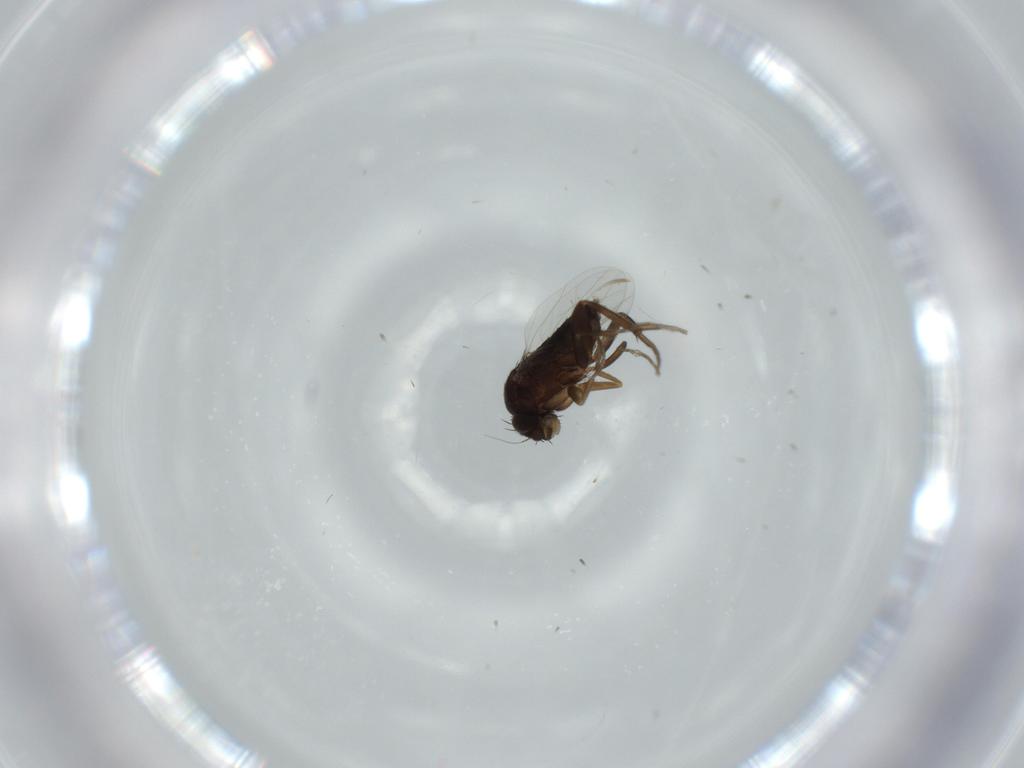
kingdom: Animalia
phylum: Arthropoda
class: Insecta
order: Diptera
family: Phoridae
